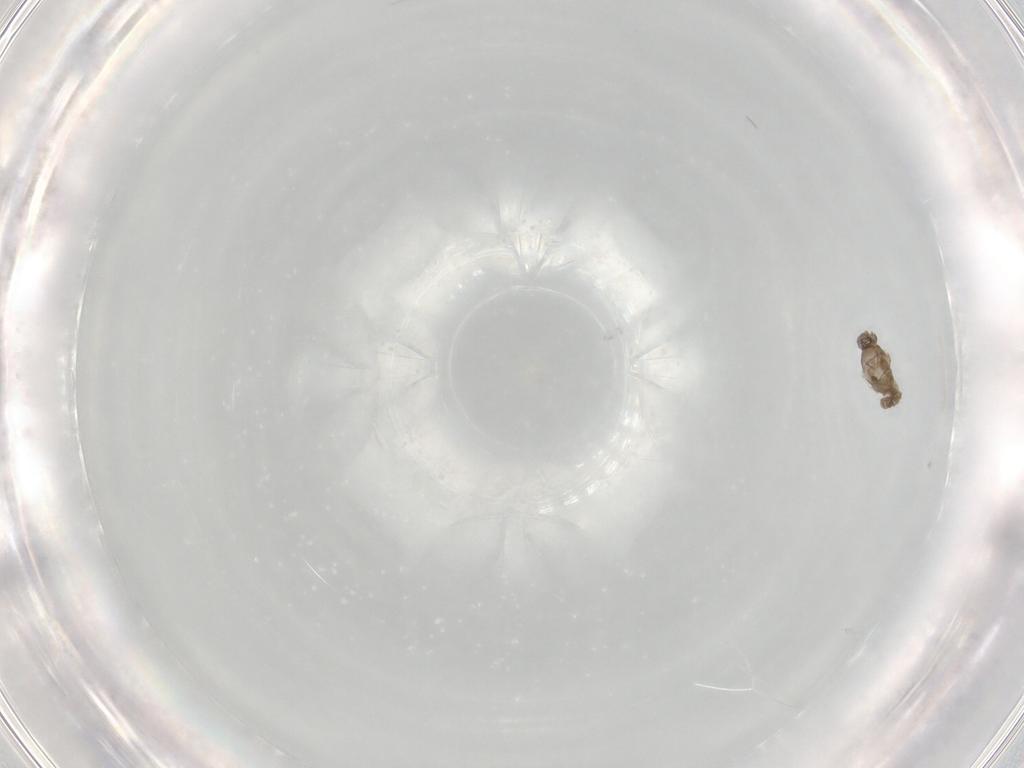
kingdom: Animalia
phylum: Arthropoda
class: Insecta
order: Diptera
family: Cecidomyiidae
